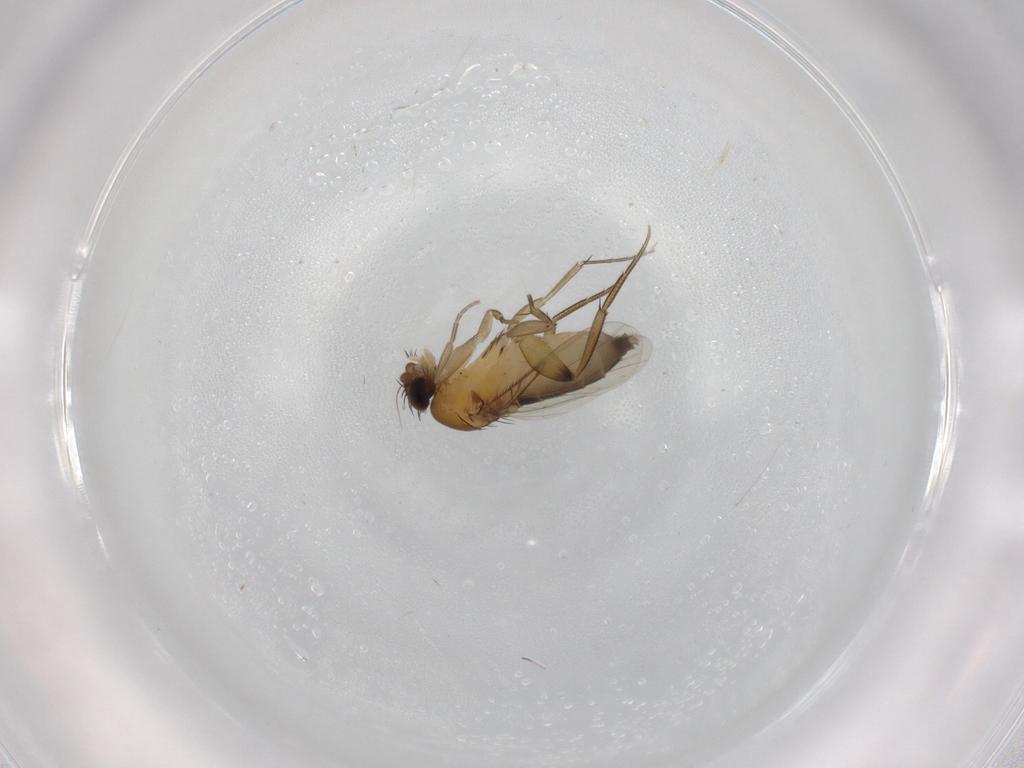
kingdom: Animalia
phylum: Arthropoda
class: Insecta
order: Diptera
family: Phoridae
